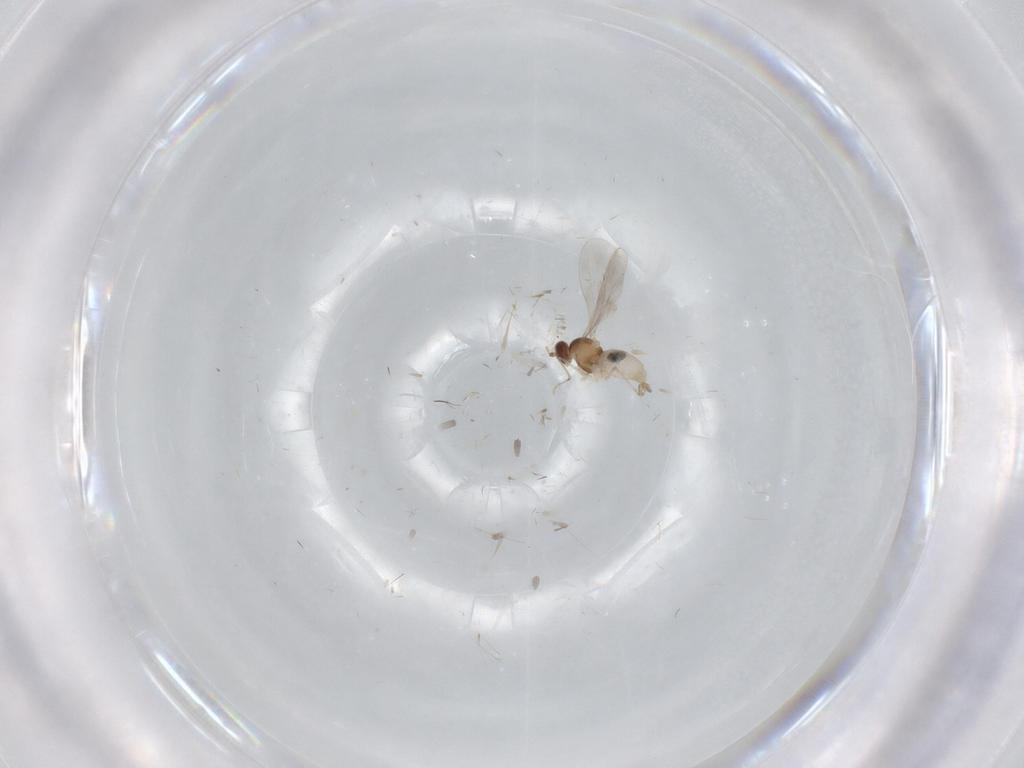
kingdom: Animalia
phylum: Arthropoda
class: Insecta
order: Diptera
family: Cecidomyiidae
